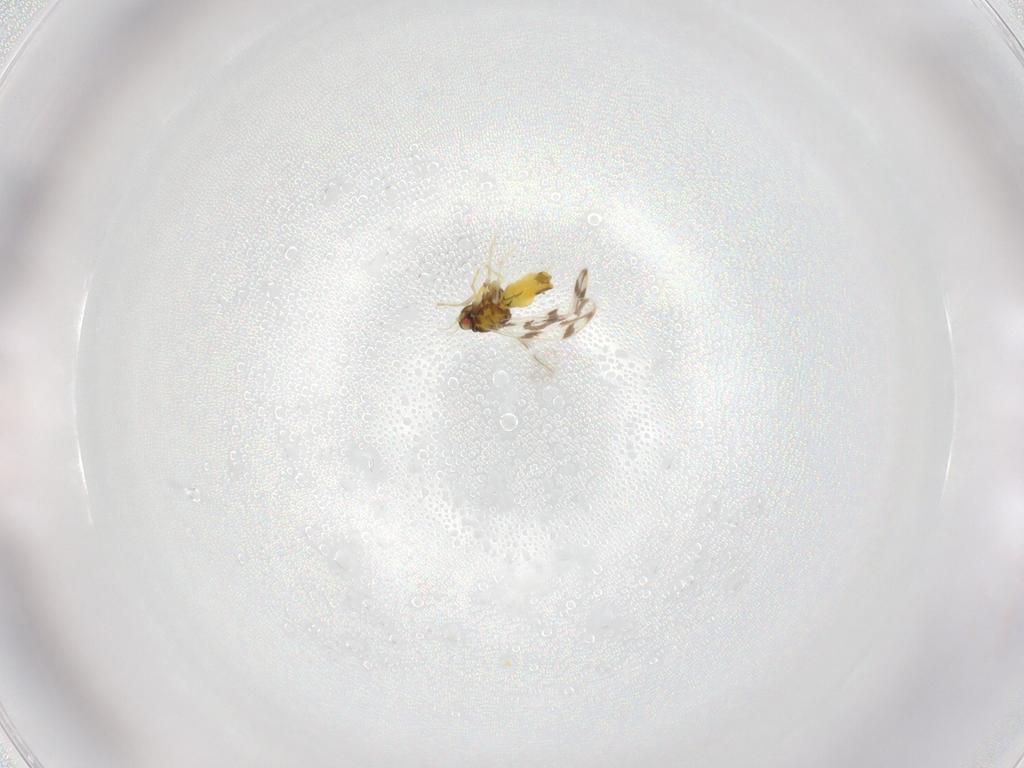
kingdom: Animalia
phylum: Arthropoda
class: Insecta
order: Hemiptera
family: Aleyrodidae
